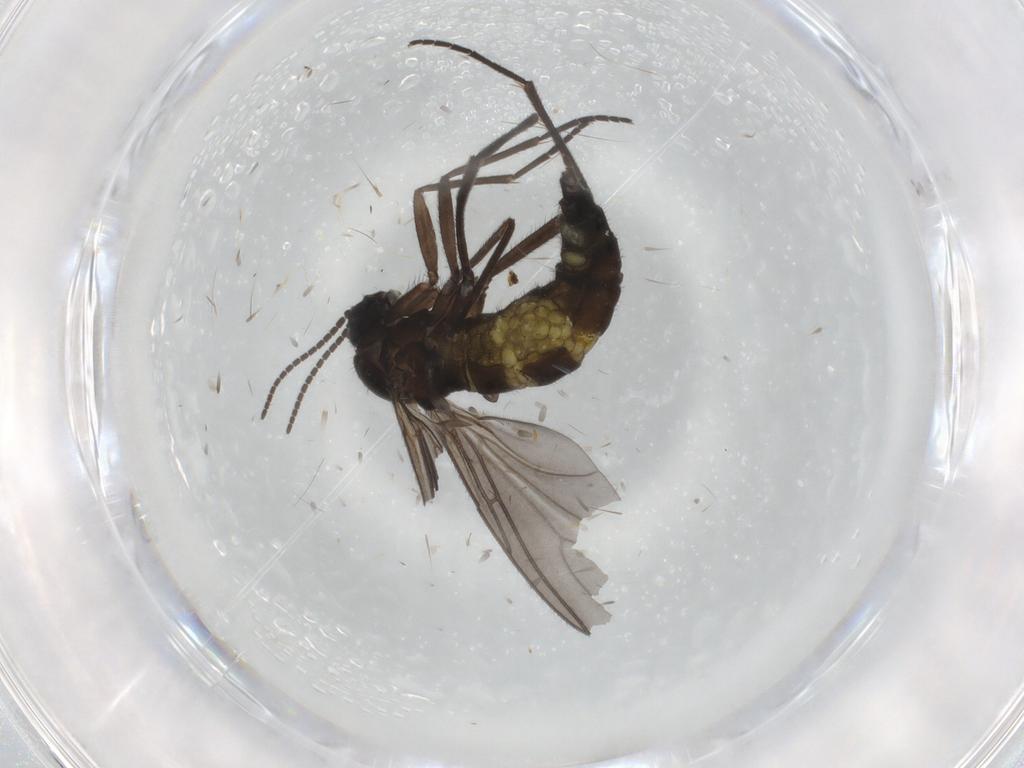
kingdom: Animalia
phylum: Arthropoda
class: Insecta
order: Diptera
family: Sciaridae
